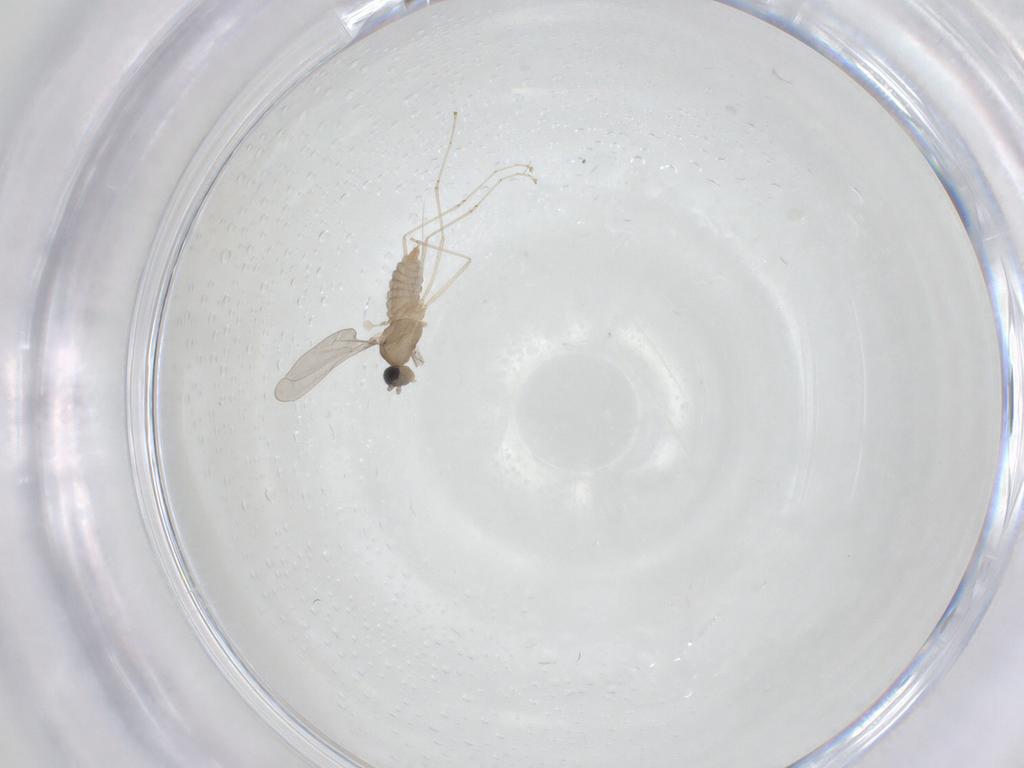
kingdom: Animalia
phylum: Arthropoda
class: Insecta
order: Diptera
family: Cecidomyiidae
